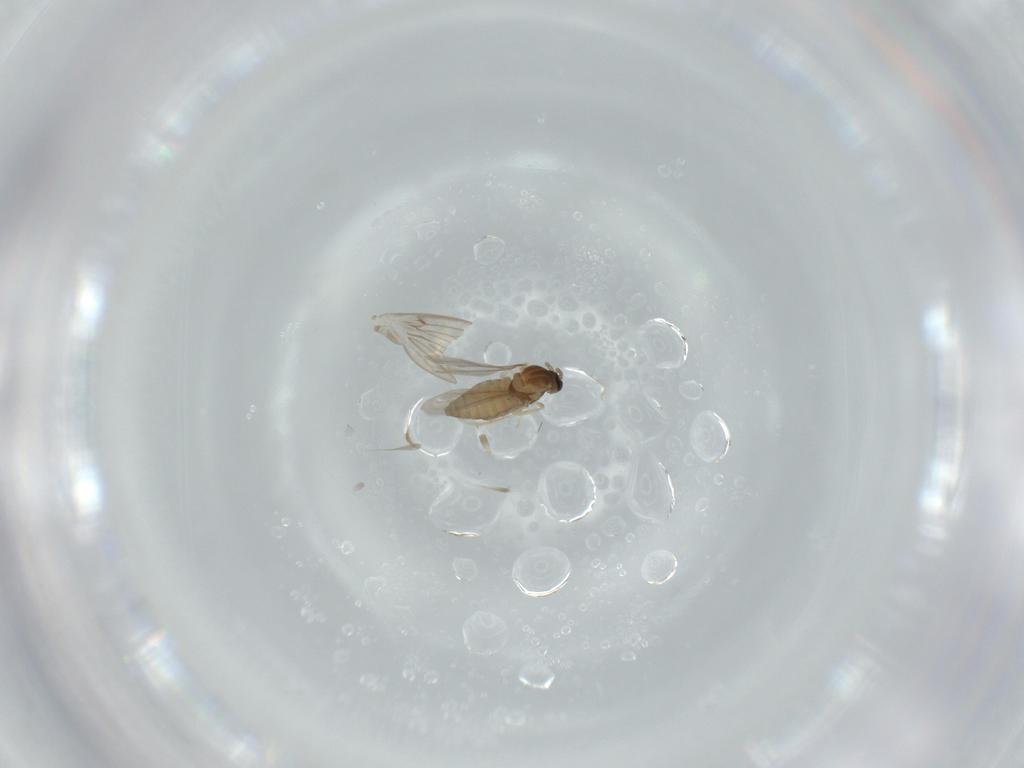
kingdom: Animalia
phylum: Arthropoda
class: Insecta
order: Diptera
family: Cecidomyiidae
